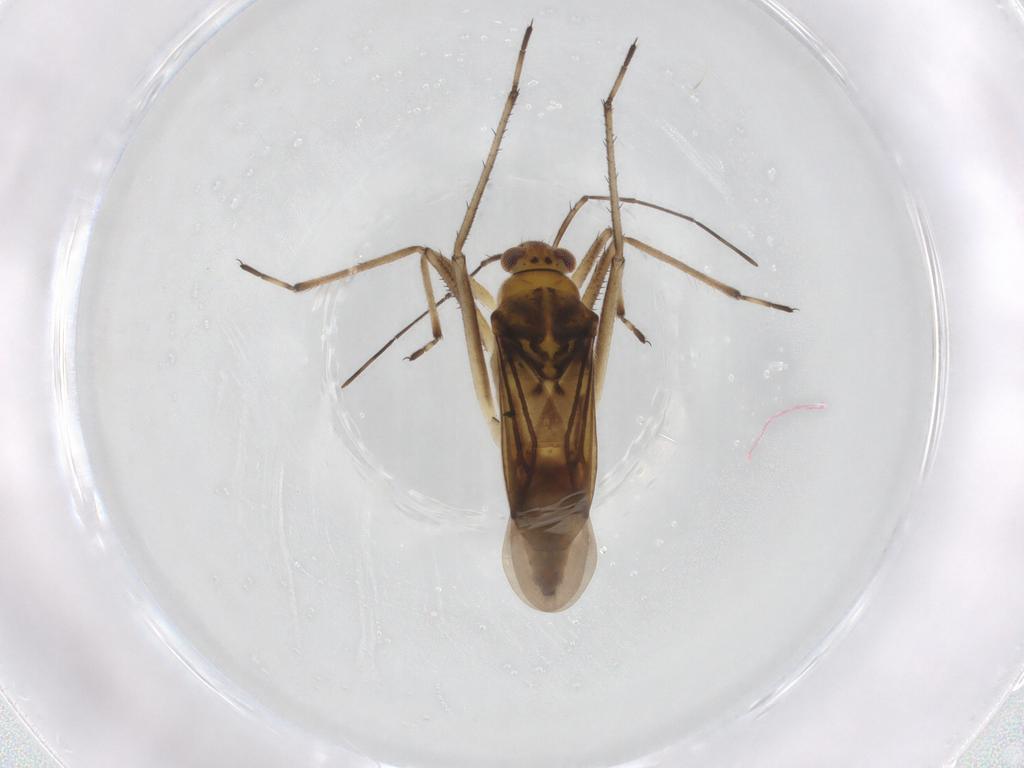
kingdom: Animalia
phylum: Arthropoda
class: Insecta
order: Hemiptera
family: Mesoveliidae
